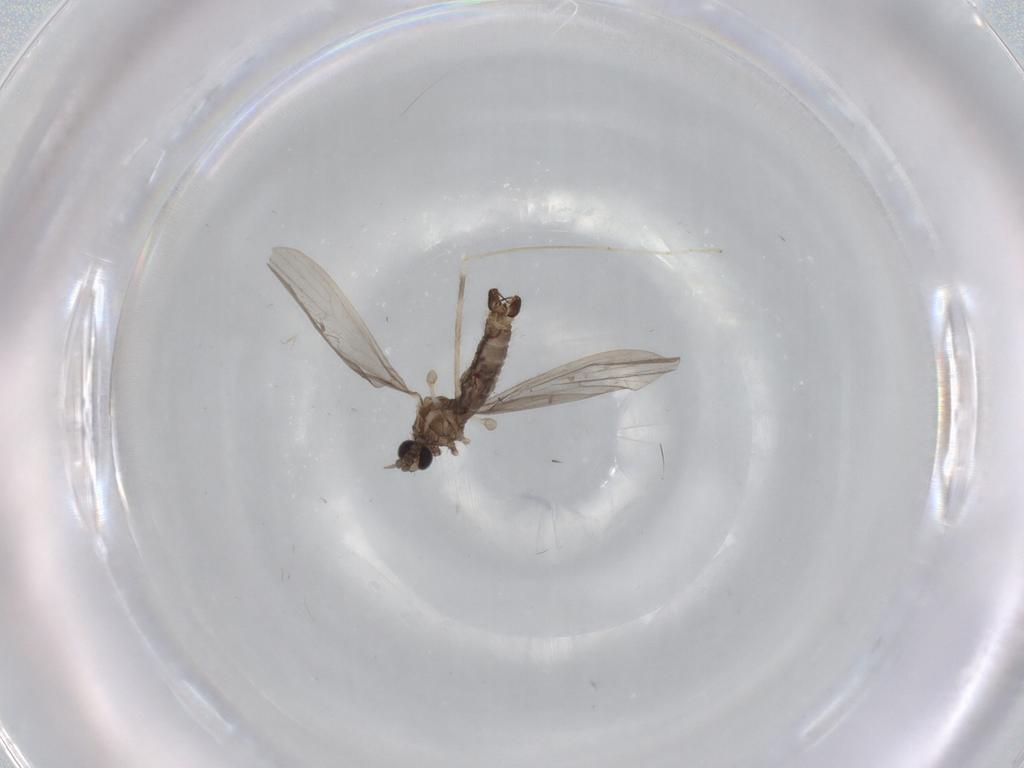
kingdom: Animalia
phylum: Arthropoda
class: Insecta
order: Diptera
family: Limoniidae
